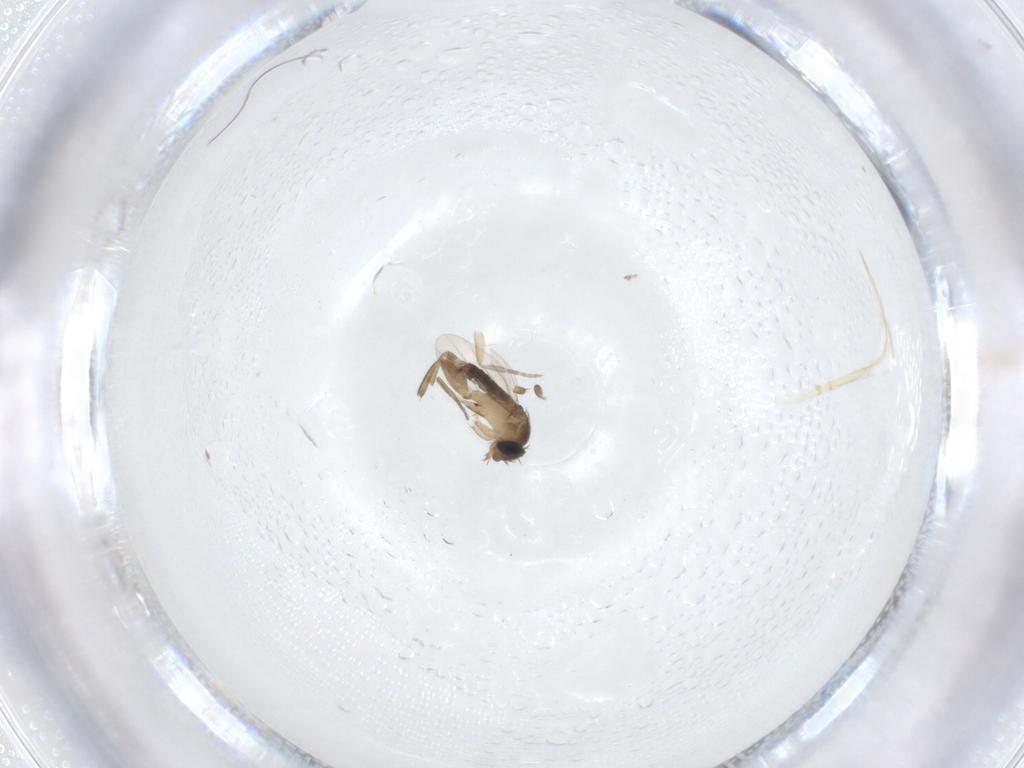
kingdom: Animalia
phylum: Arthropoda
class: Insecta
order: Diptera
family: Phoridae
